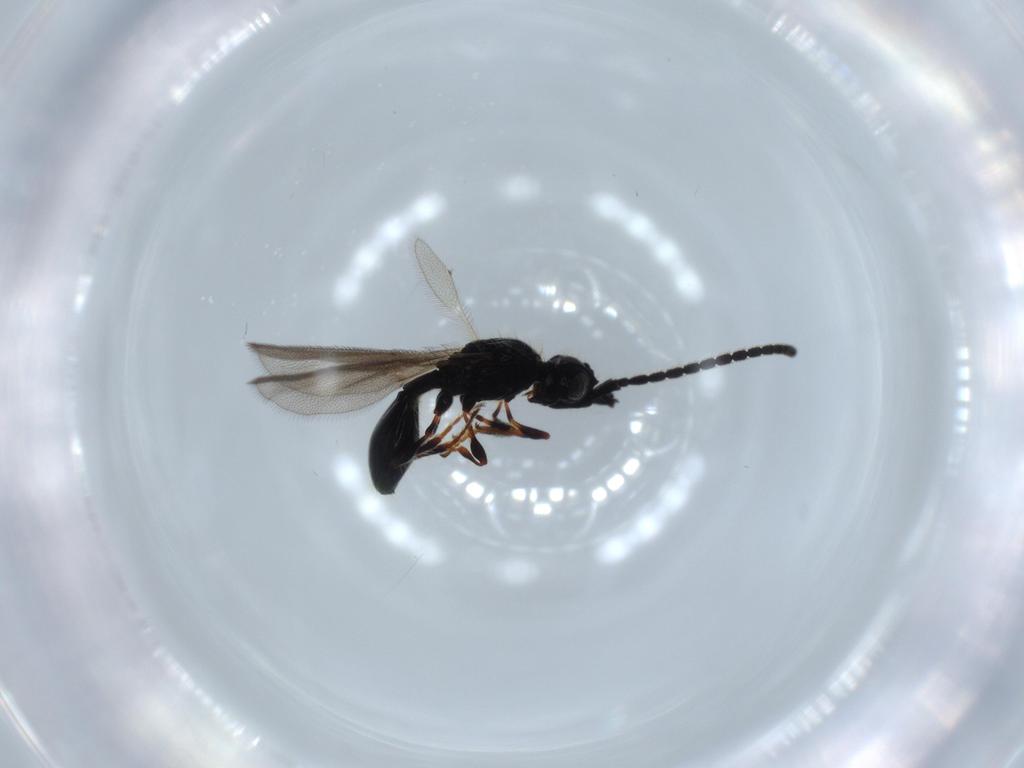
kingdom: Animalia
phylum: Arthropoda
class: Insecta
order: Hymenoptera
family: Diapriidae
